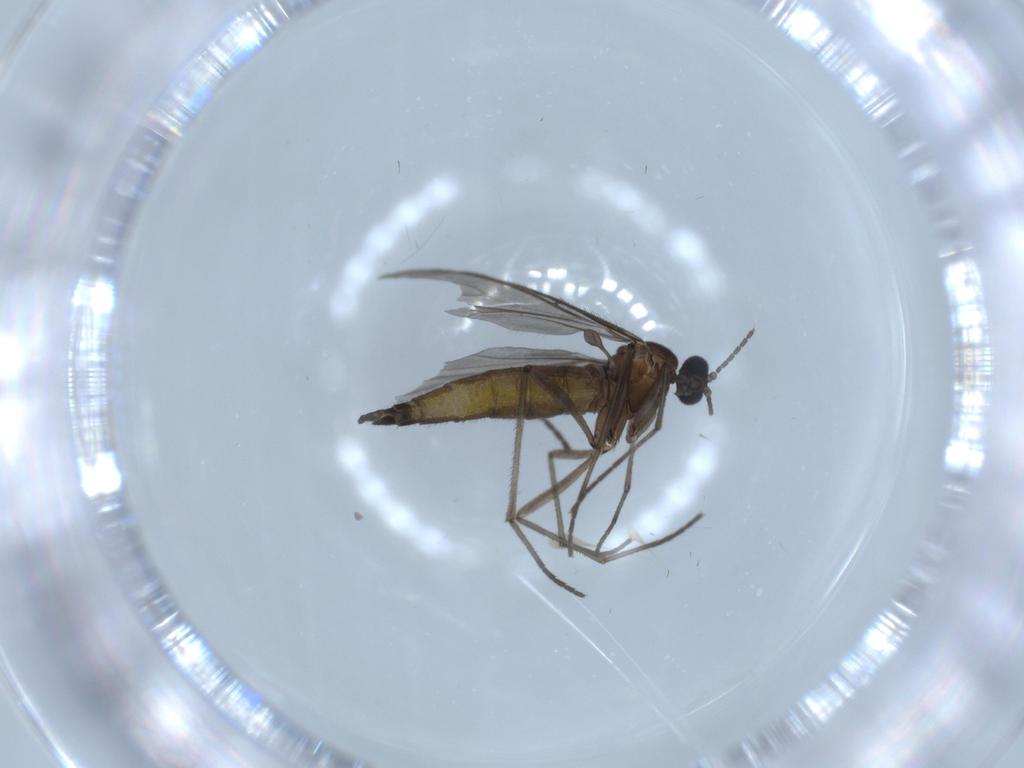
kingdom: Animalia
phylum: Arthropoda
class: Insecta
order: Diptera
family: Sciaridae
